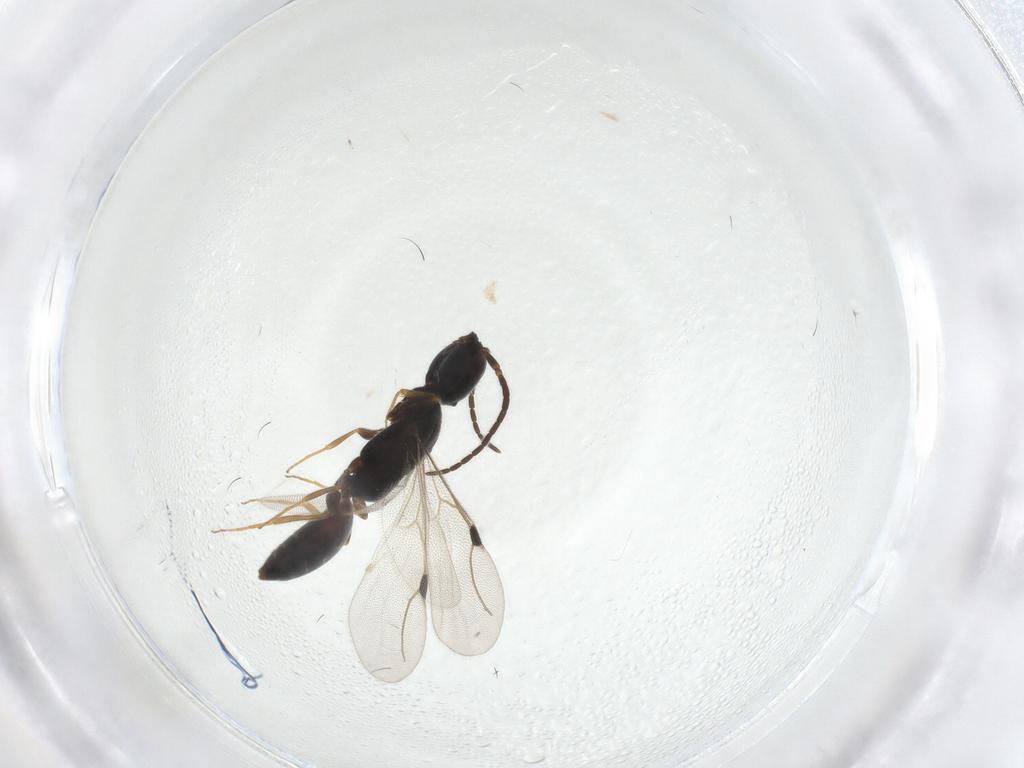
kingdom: Animalia
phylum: Arthropoda
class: Insecta
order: Hymenoptera
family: Bethylidae
